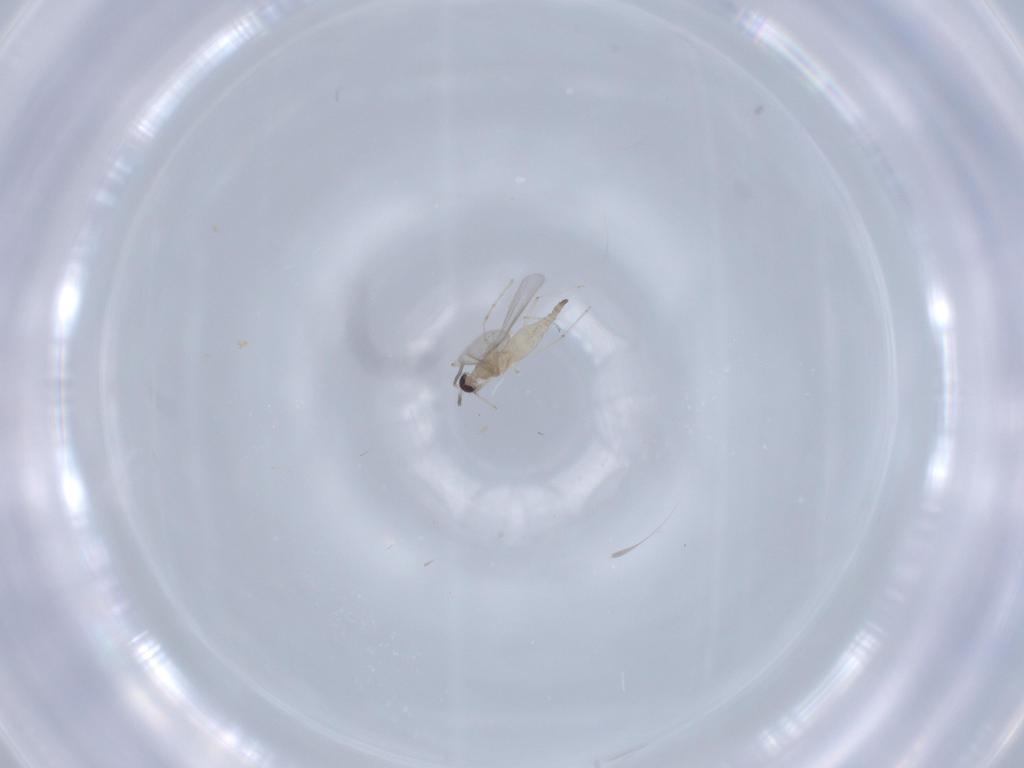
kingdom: Animalia
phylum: Arthropoda
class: Insecta
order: Diptera
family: Cecidomyiidae
